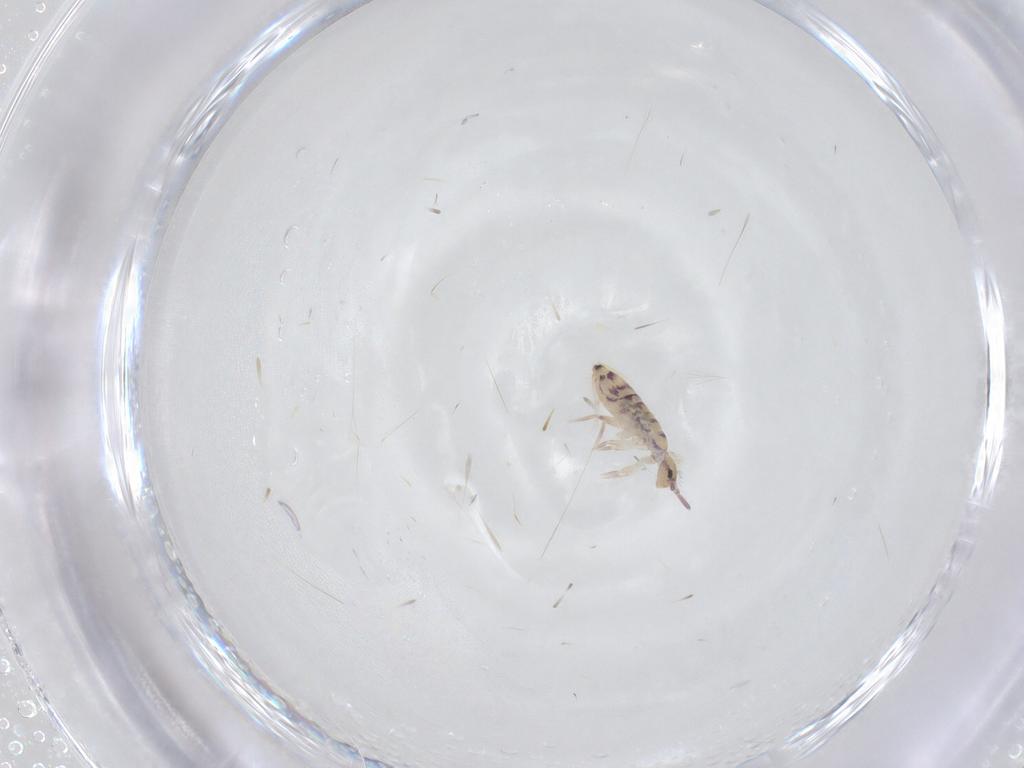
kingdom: Animalia
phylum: Arthropoda
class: Collembola
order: Entomobryomorpha
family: Entomobryidae
